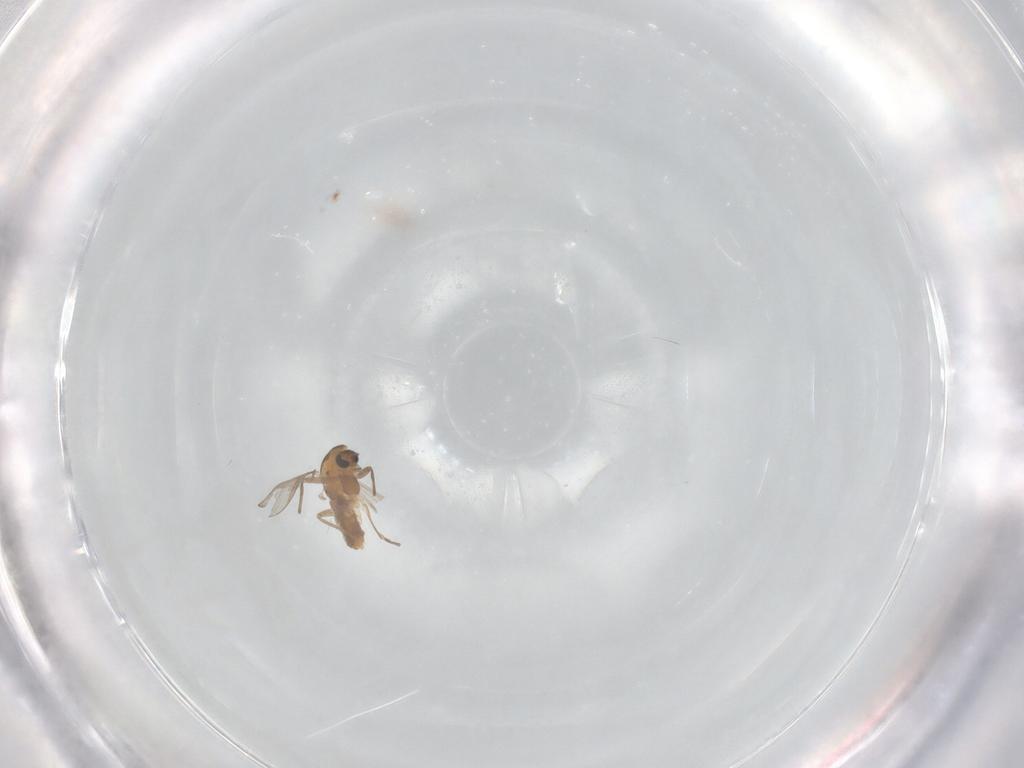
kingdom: Animalia
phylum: Arthropoda
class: Insecta
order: Diptera
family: Chironomidae
